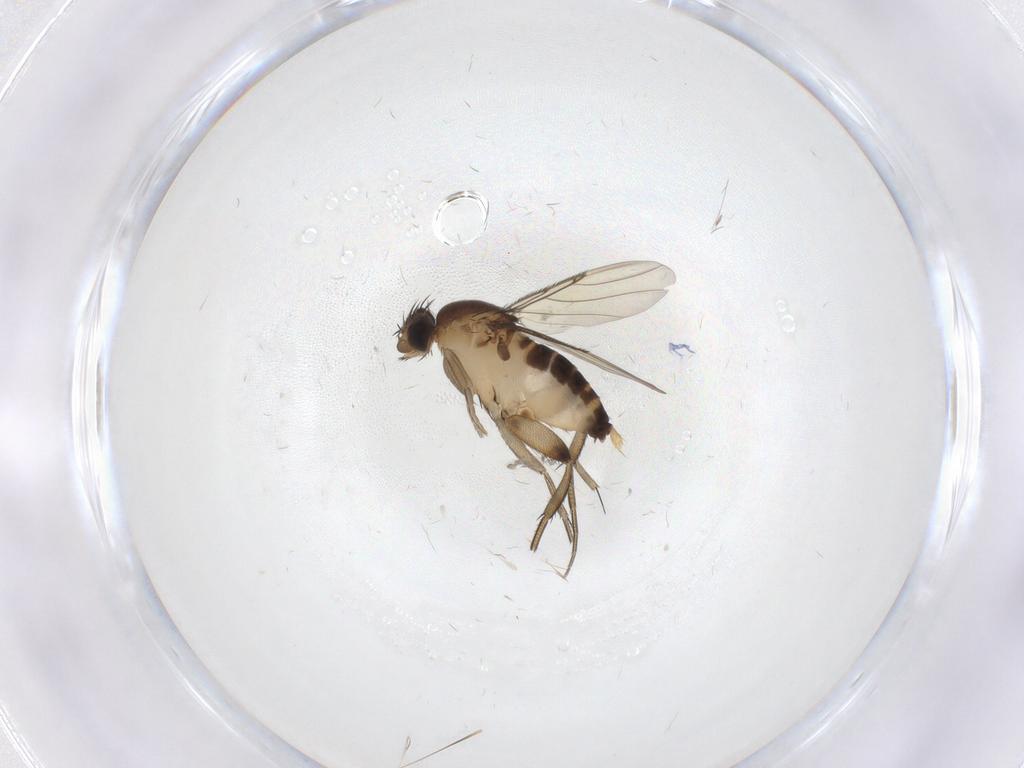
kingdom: Animalia
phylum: Arthropoda
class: Insecta
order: Diptera
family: Phoridae
